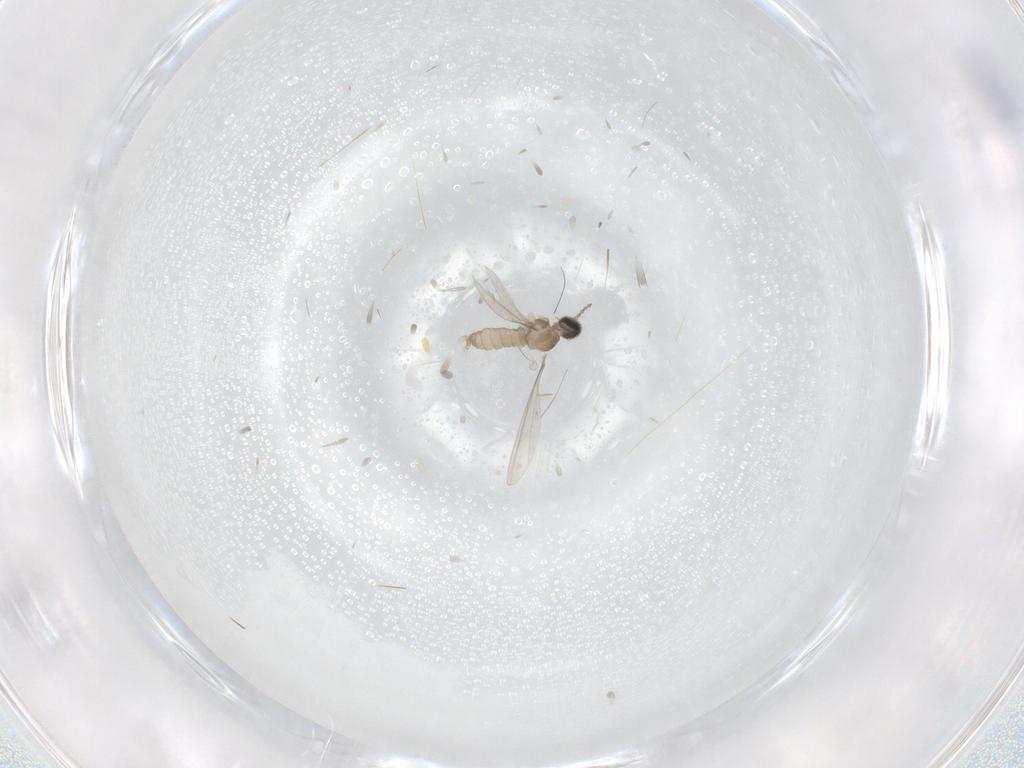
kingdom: Animalia
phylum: Arthropoda
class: Insecta
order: Diptera
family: Cecidomyiidae
